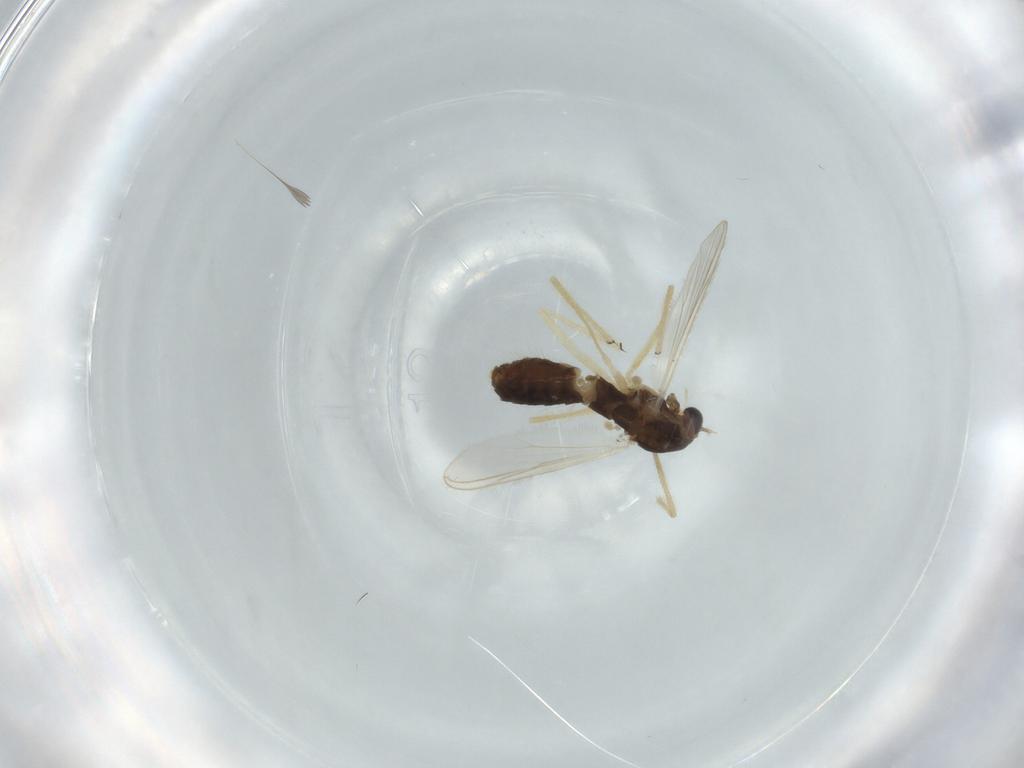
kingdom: Animalia
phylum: Arthropoda
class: Insecta
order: Diptera
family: Chironomidae
